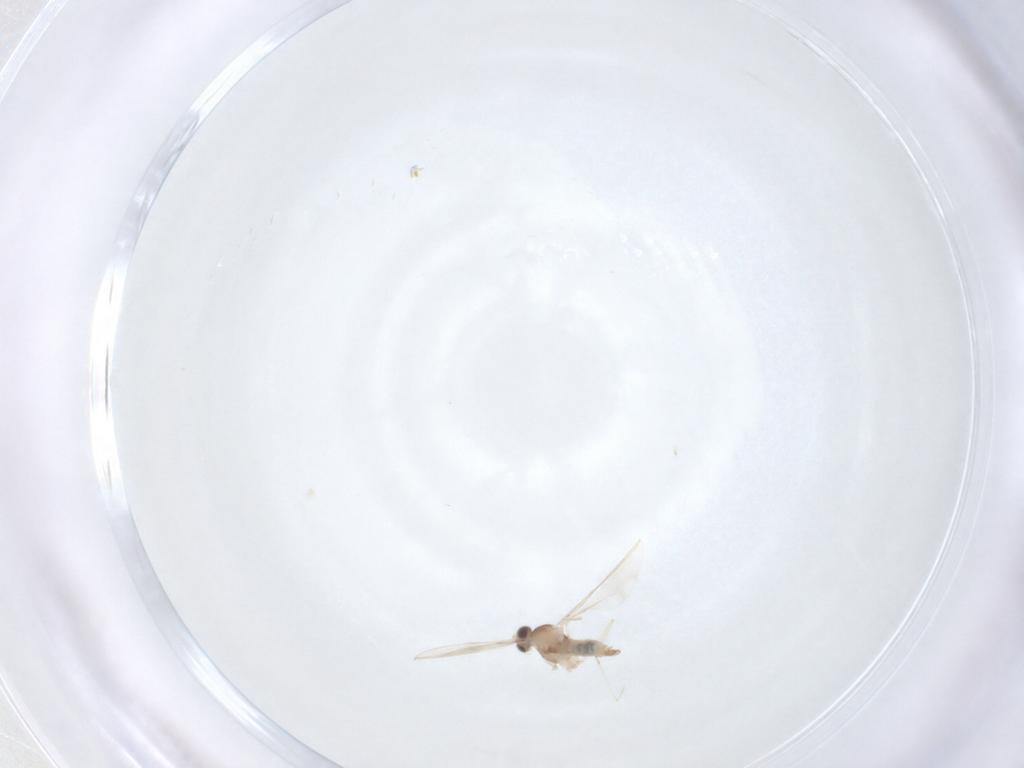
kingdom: Animalia
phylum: Arthropoda
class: Insecta
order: Diptera
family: Cecidomyiidae
